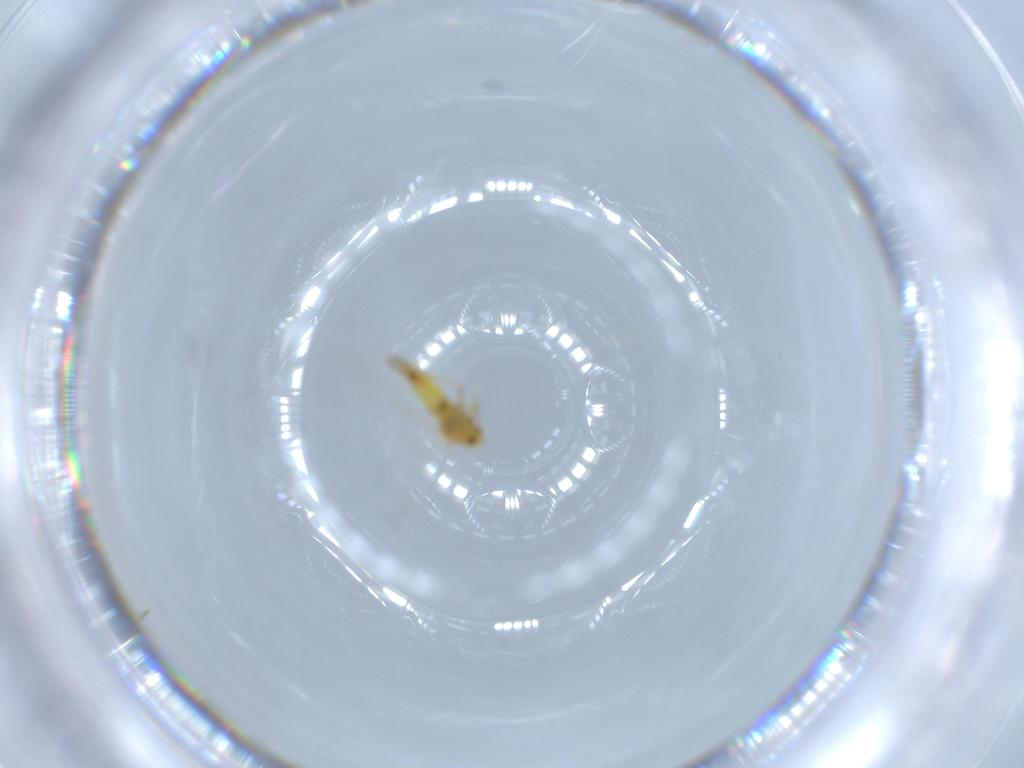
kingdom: Animalia
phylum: Arthropoda
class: Insecta
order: Hemiptera
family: Aleyrodidae
